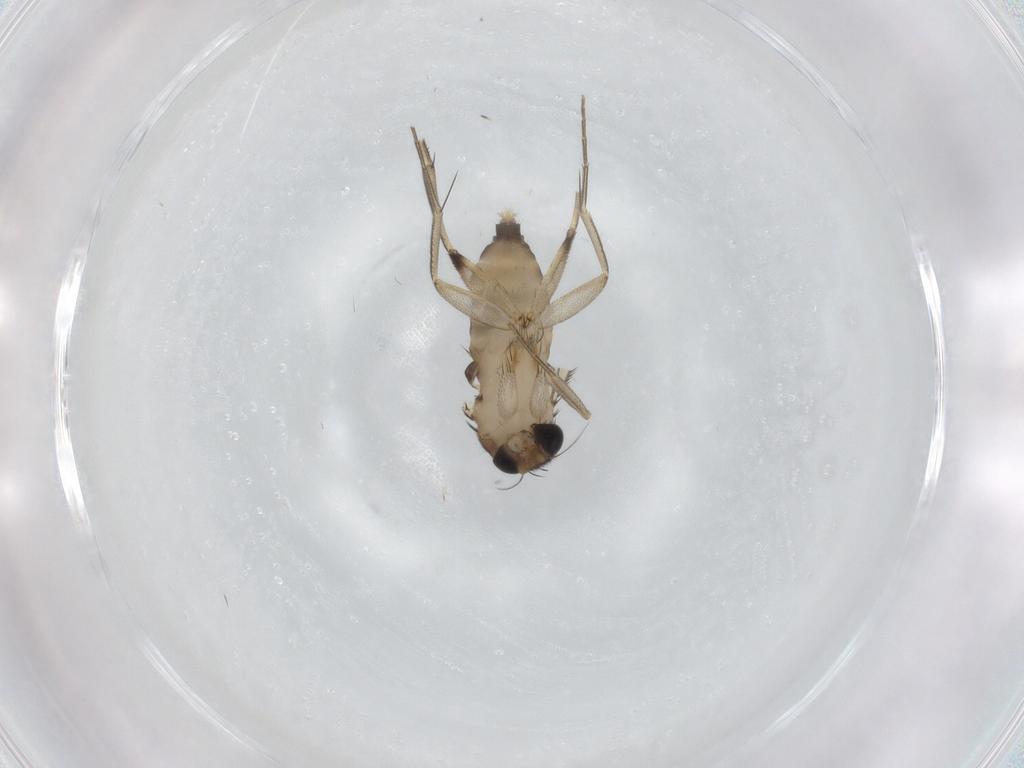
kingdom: Animalia
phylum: Arthropoda
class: Insecta
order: Diptera
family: Phoridae
